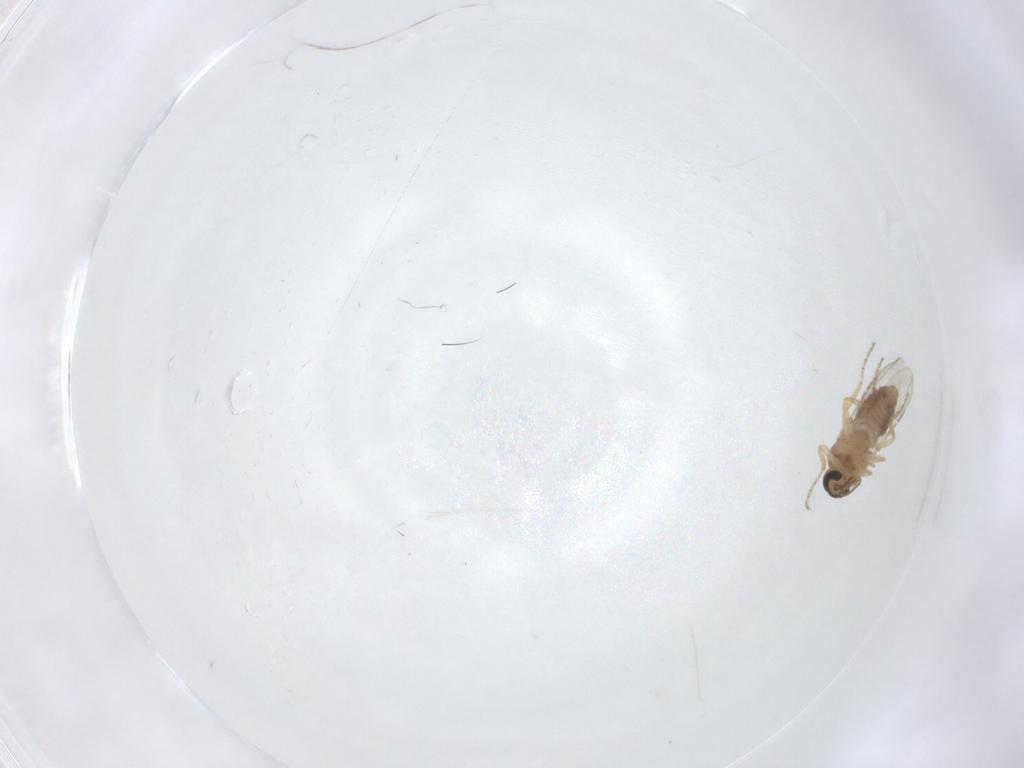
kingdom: Animalia
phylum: Arthropoda
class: Insecta
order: Diptera
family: Ceratopogonidae
